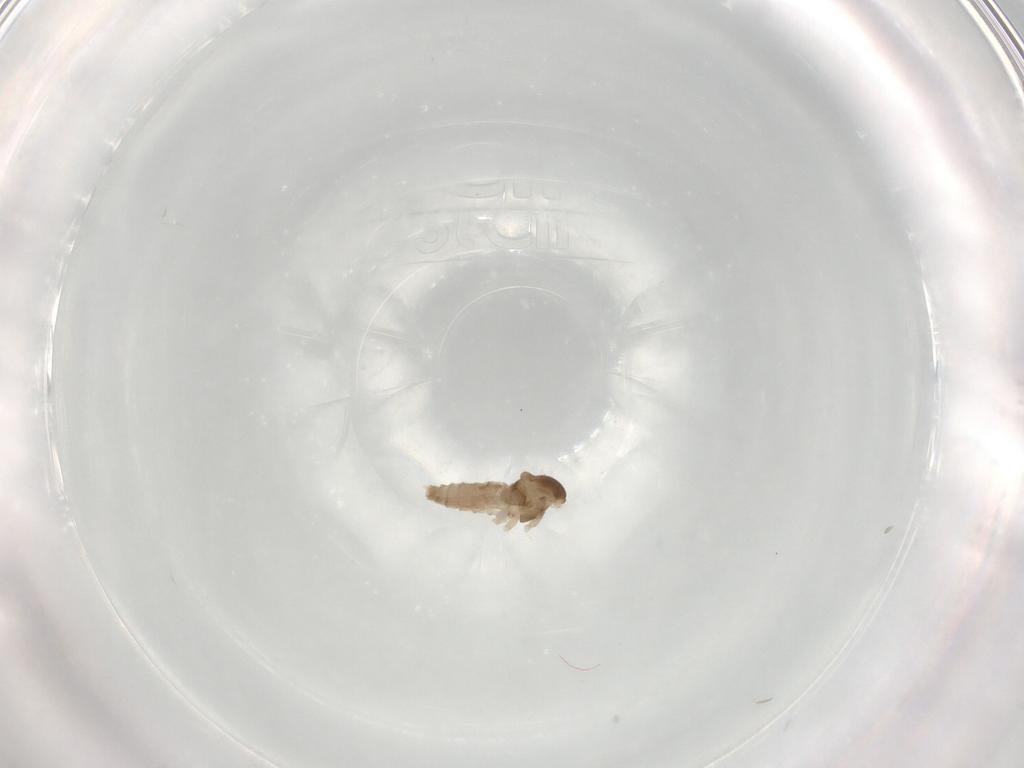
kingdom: Animalia
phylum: Arthropoda
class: Insecta
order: Diptera
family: Cecidomyiidae
